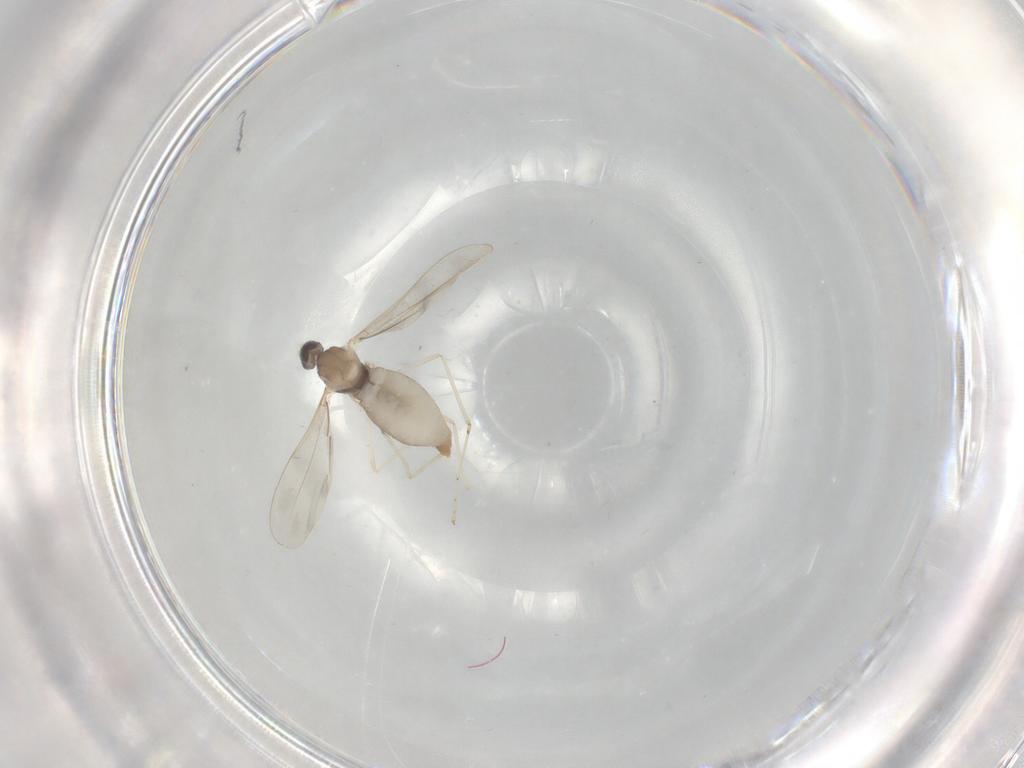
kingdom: Animalia
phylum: Arthropoda
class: Insecta
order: Diptera
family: Cecidomyiidae
